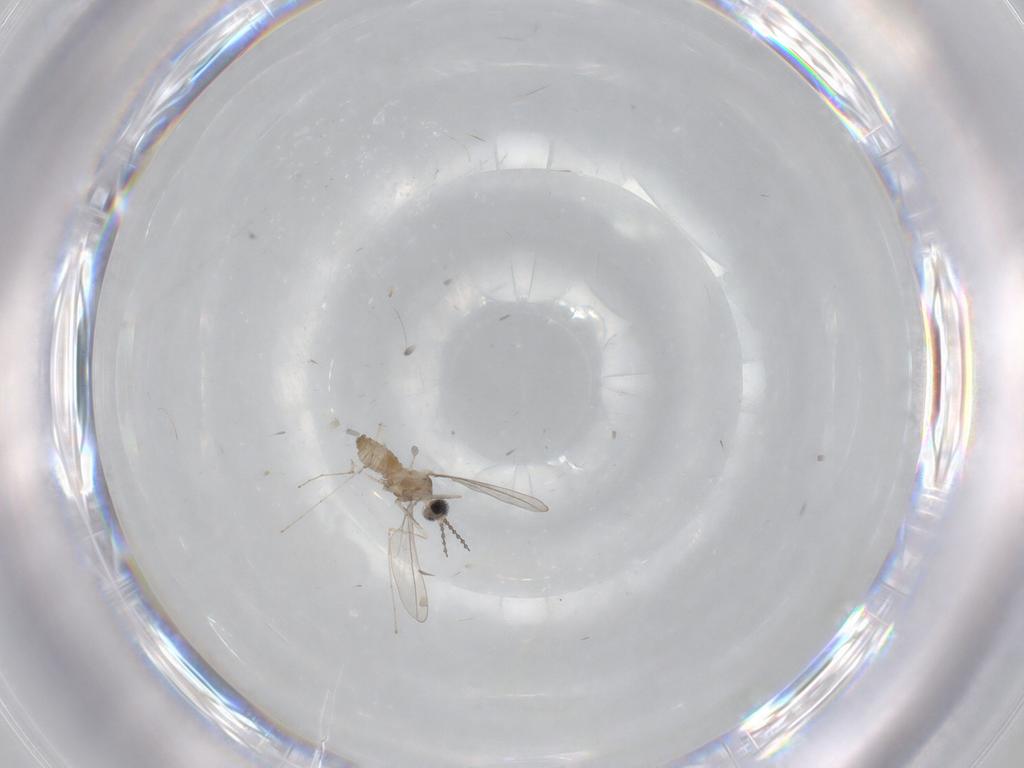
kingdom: Animalia
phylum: Arthropoda
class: Insecta
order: Diptera
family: Cecidomyiidae
